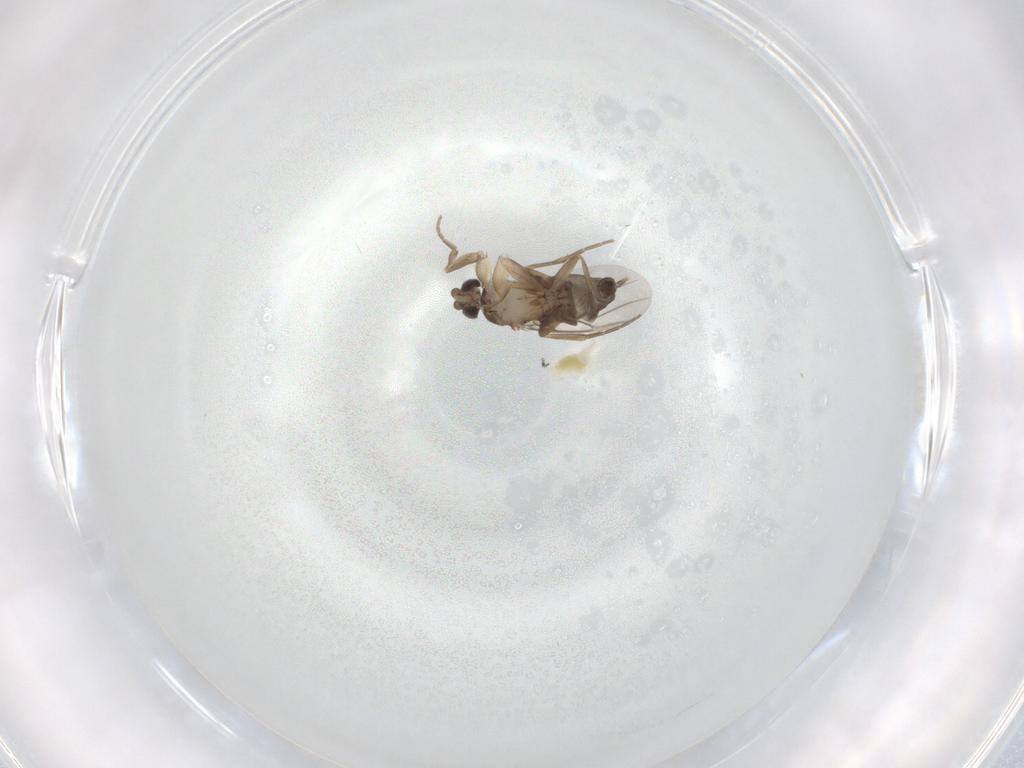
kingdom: Animalia
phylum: Arthropoda
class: Insecta
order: Diptera
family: Phoridae
